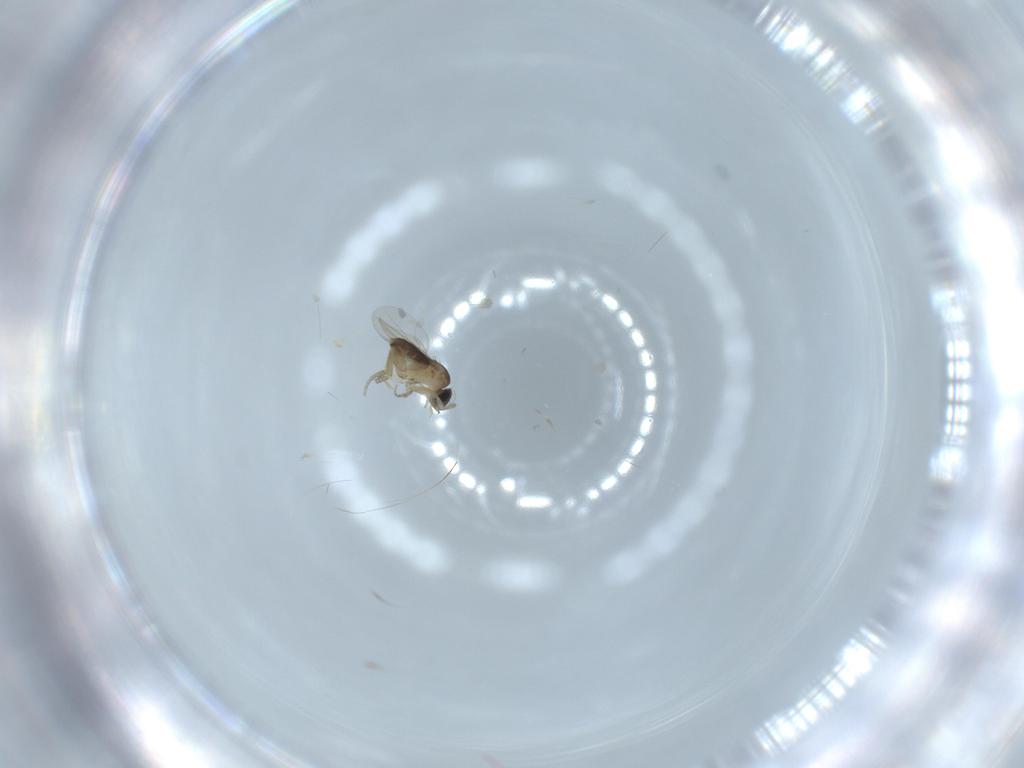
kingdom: Animalia
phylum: Arthropoda
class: Insecta
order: Diptera
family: Phoridae
